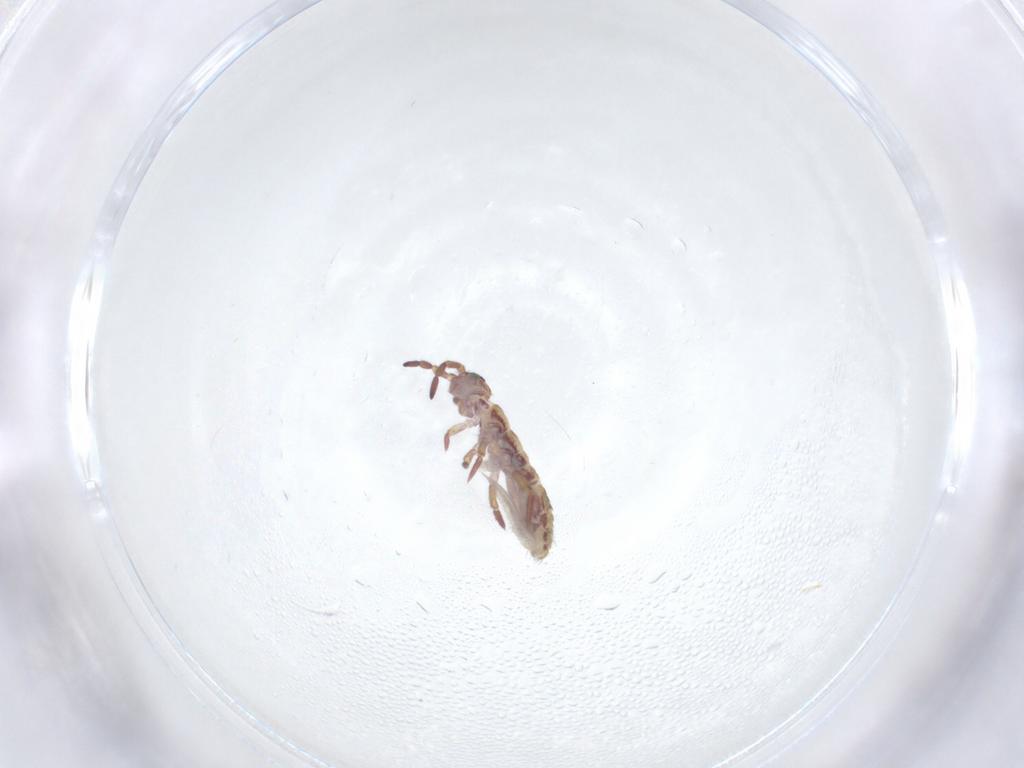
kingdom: Animalia
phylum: Arthropoda
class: Collembola
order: Entomobryomorpha
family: Isotomidae
